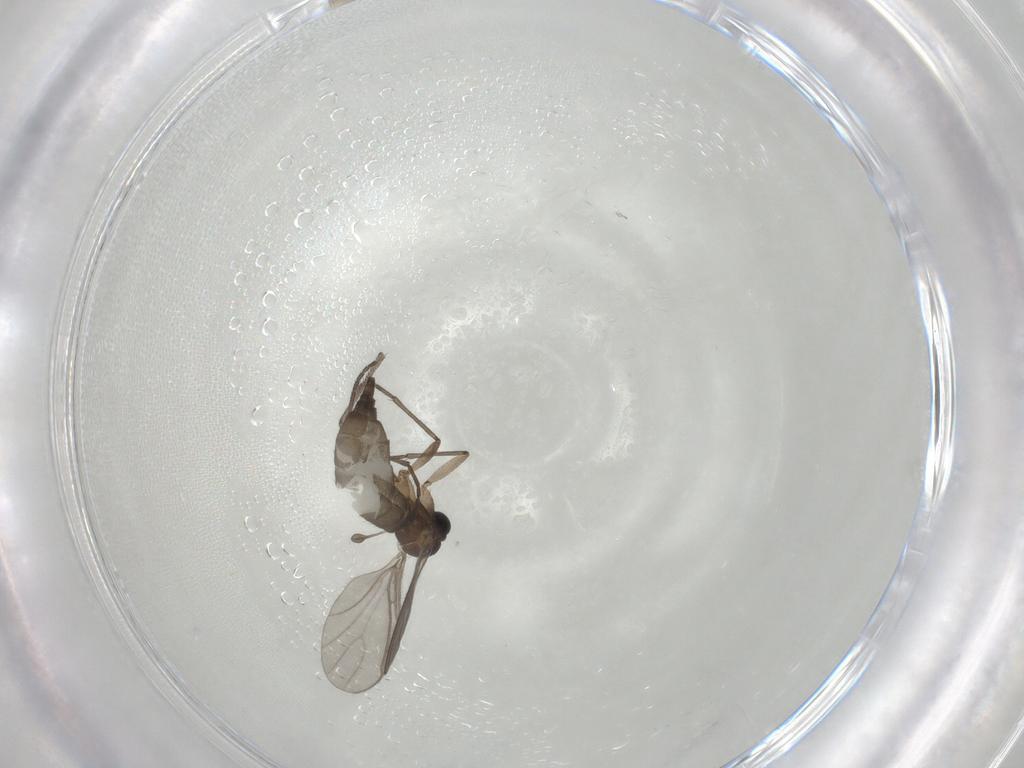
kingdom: Animalia
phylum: Arthropoda
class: Insecta
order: Diptera
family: Sciaridae
